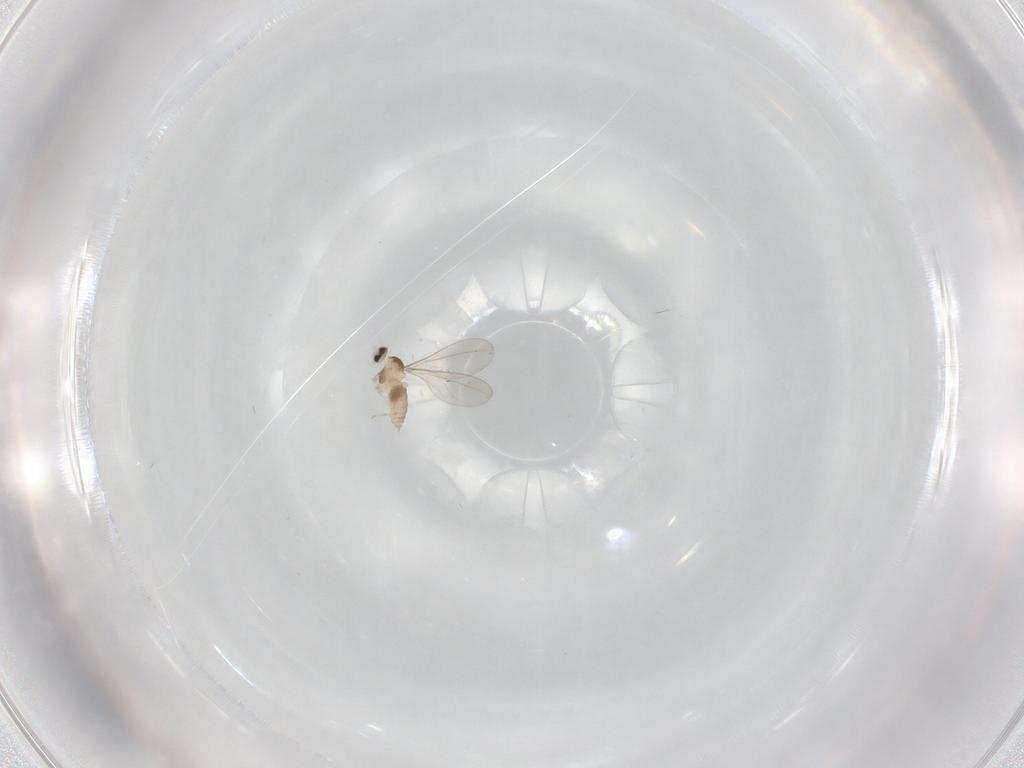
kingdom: Animalia
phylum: Arthropoda
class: Insecta
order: Diptera
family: Cecidomyiidae
